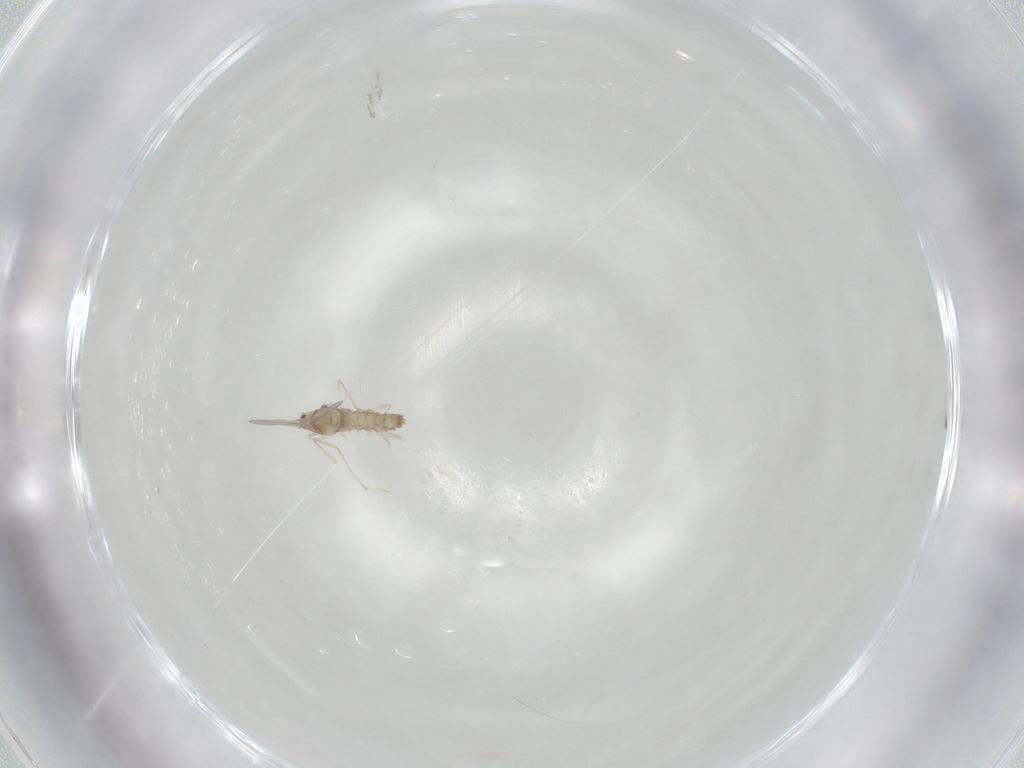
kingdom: Animalia
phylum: Arthropoda
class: Insecta
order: Diptera
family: Cecidomyiidae
